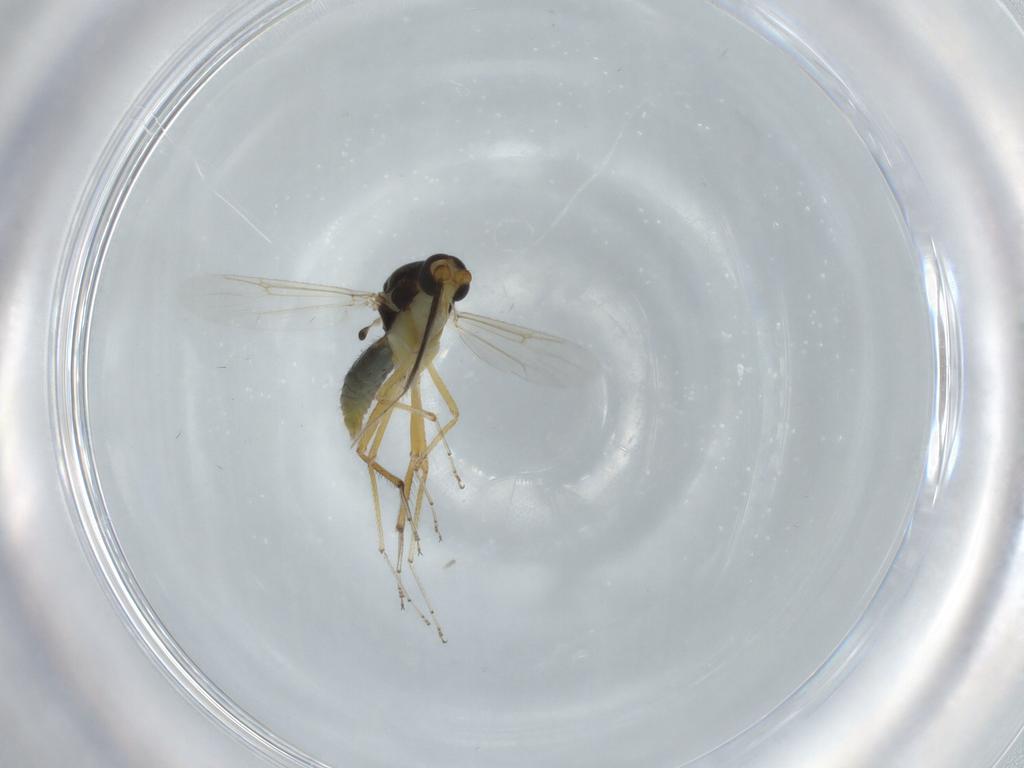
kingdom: Animalia
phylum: Arthropoda
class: Insecta
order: Diptera
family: Ceratopogonidae
